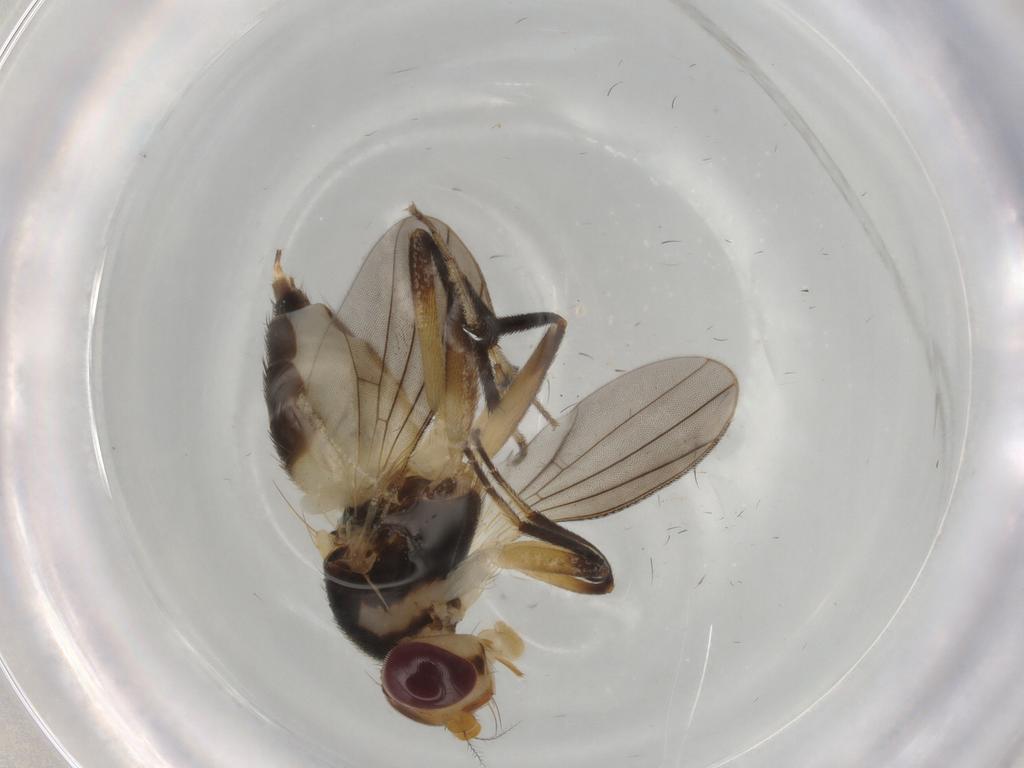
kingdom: Animalia
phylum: Arthropoda
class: Insecta
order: Diptera
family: Clusiidae
